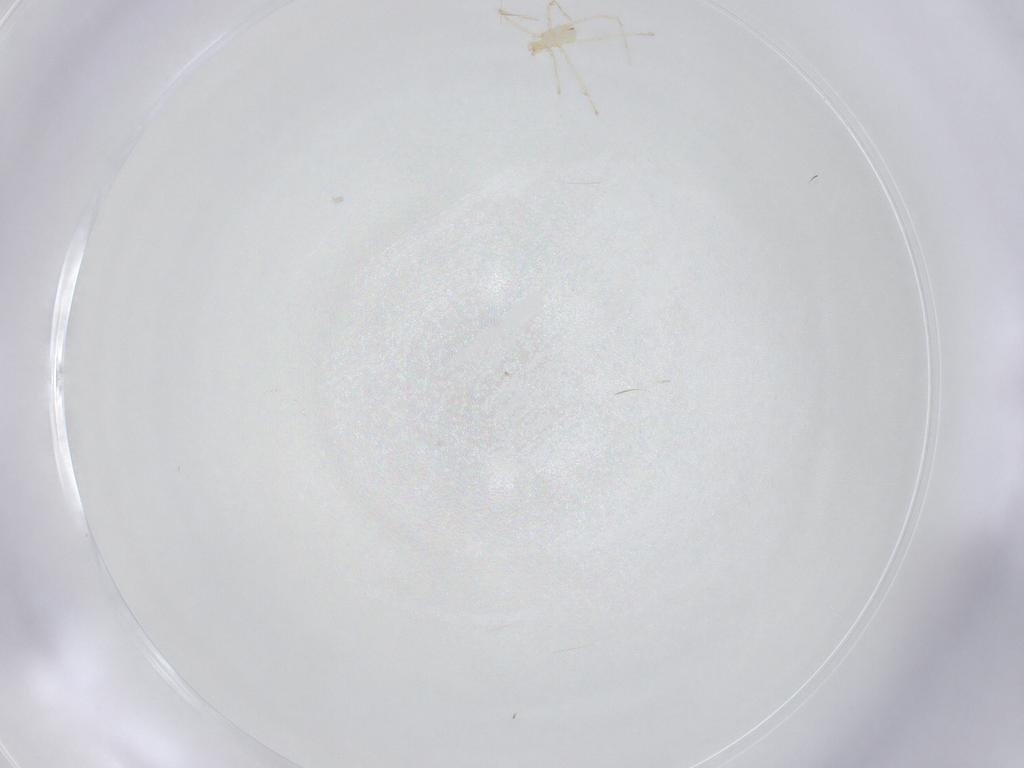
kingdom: Animalia
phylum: Arthropoda
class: Arachnida
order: Trombidiformes
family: Erythraeidae
